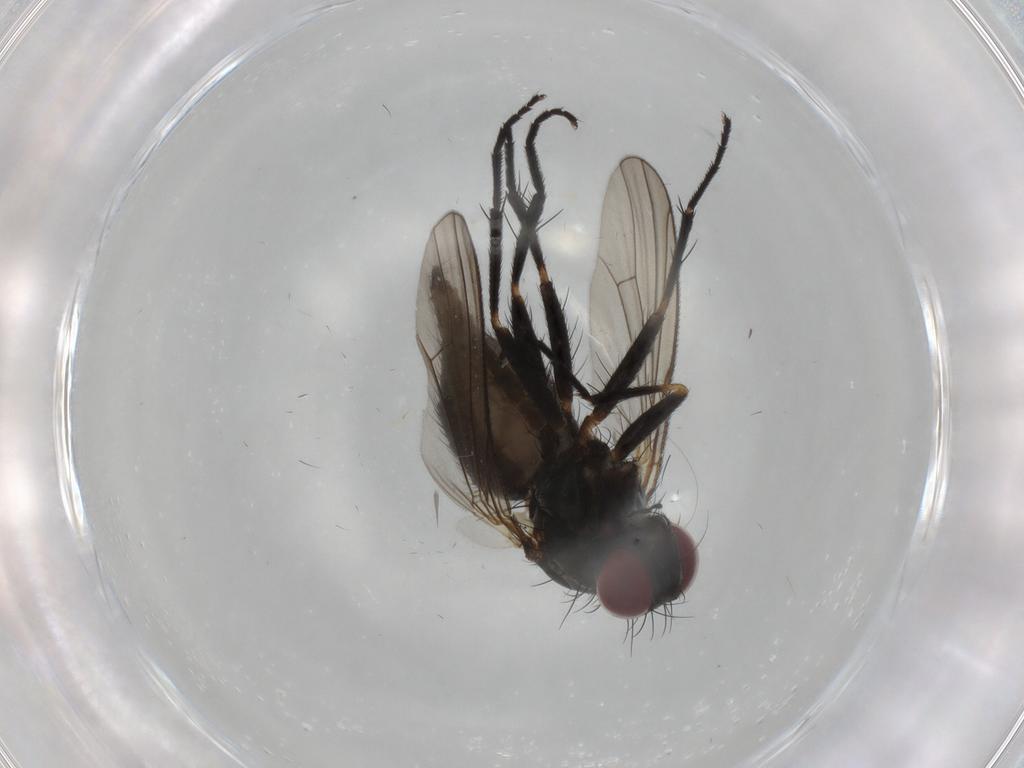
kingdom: Animalia
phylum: Arthropoda
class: Insecta
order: Diptera
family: Muscidae
